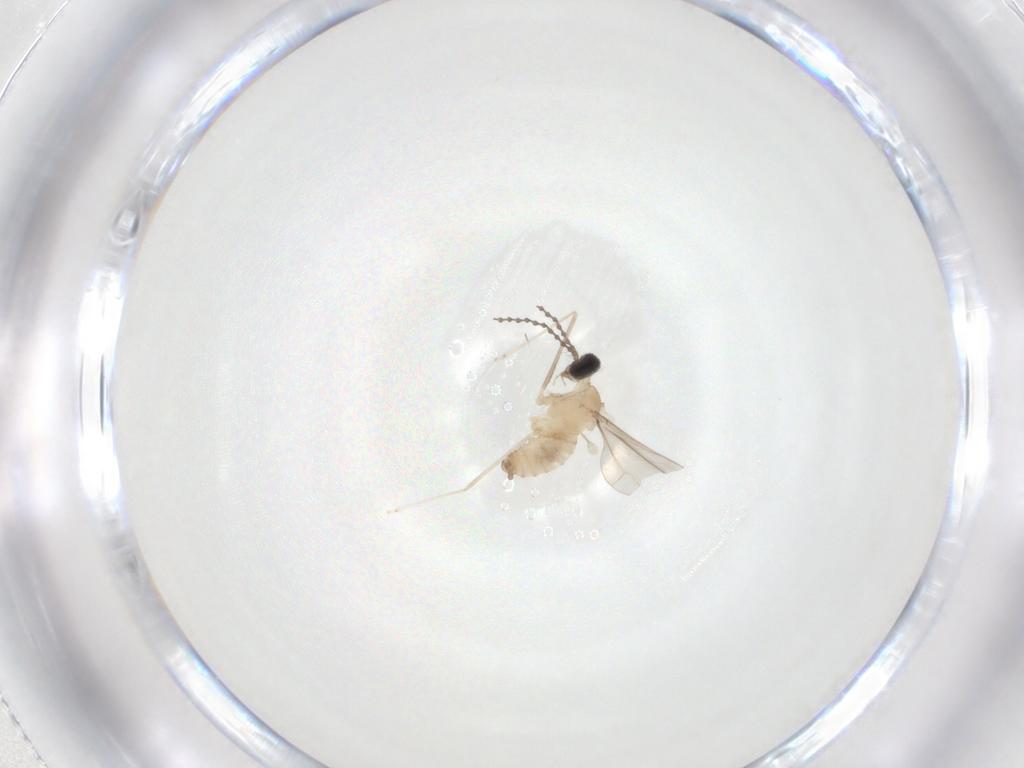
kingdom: Animalia
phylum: Arthropoda
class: Insecta
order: Diptera
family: Cecidomyiidae
